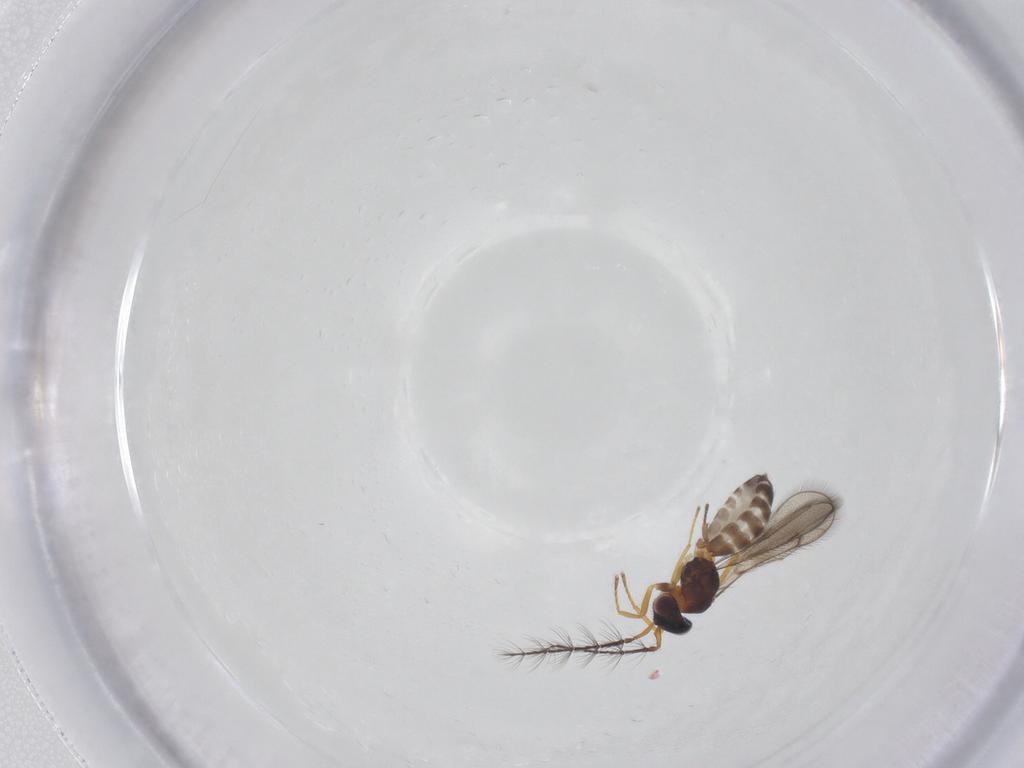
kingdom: Animalia
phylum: Arthropoda
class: Insecta
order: Hymenoptera
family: Eulophidae
